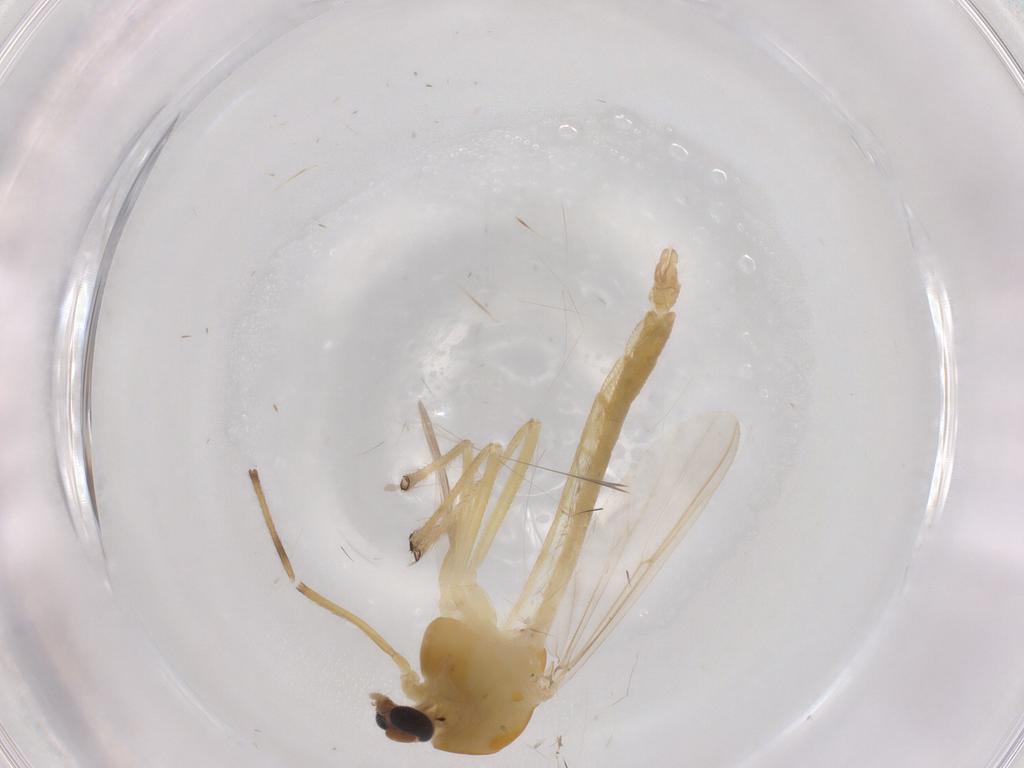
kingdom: Animalia
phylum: Arthropoda
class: Insecta
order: Diptera
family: Chironomidae
